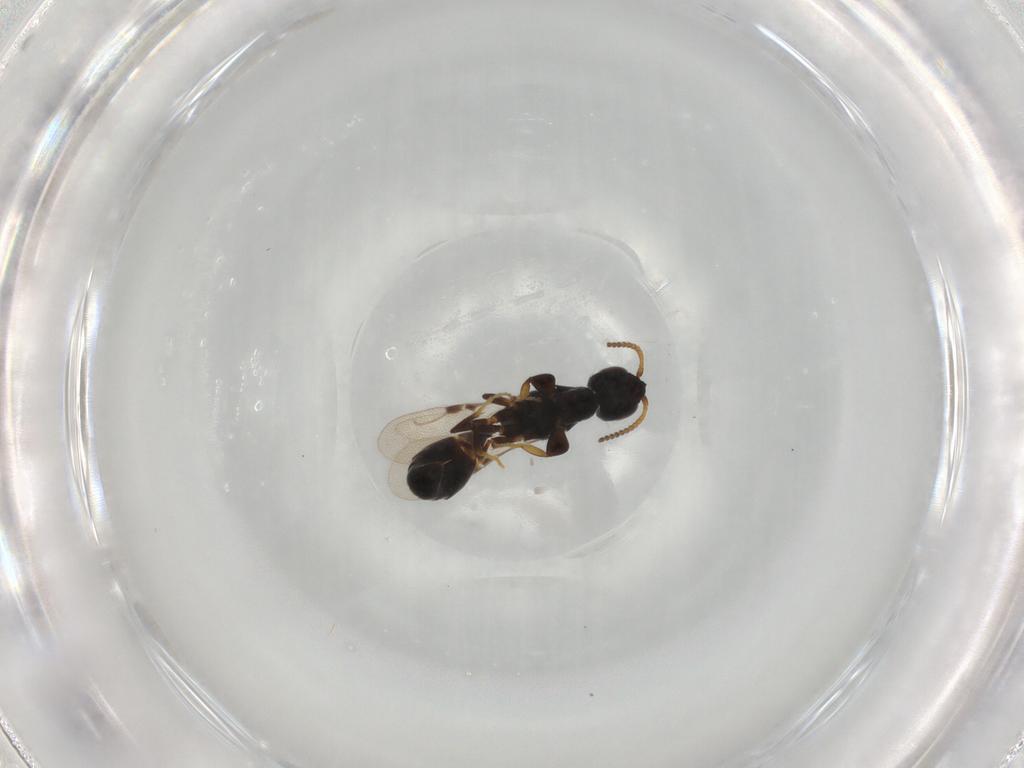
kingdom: Animalia
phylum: Arthropoda
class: Insecta
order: Hymenoptera
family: Bethylidae
